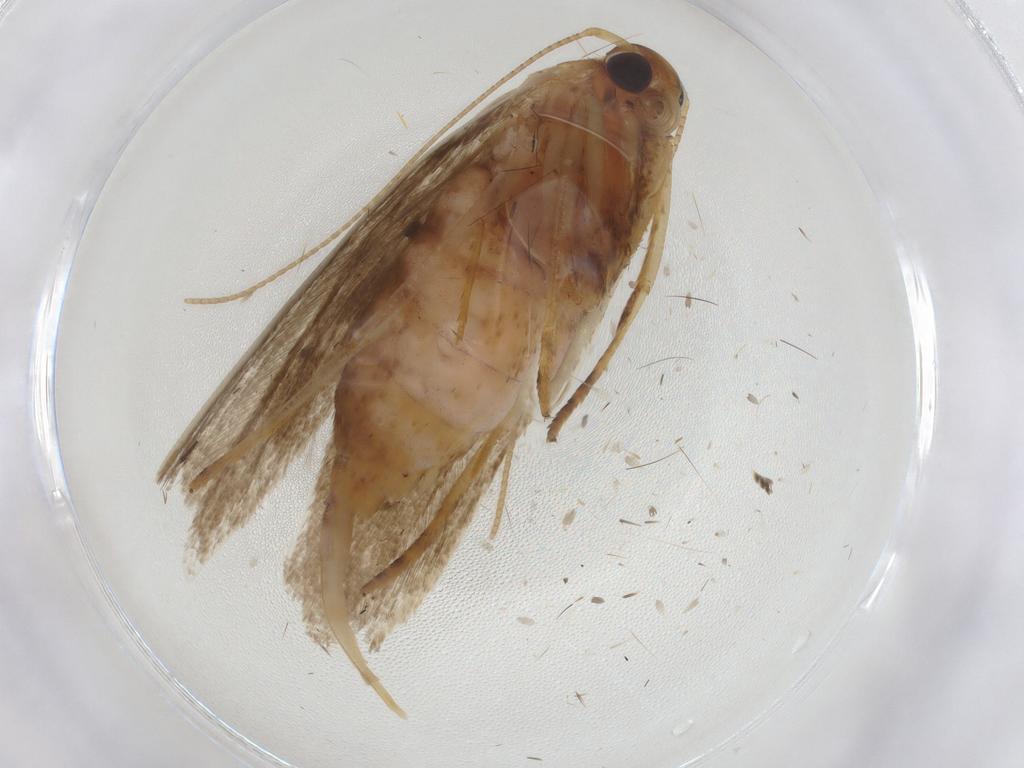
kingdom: Animalia
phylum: Arthropoda
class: Insecta
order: Lepidoptera
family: Blastobasidae
